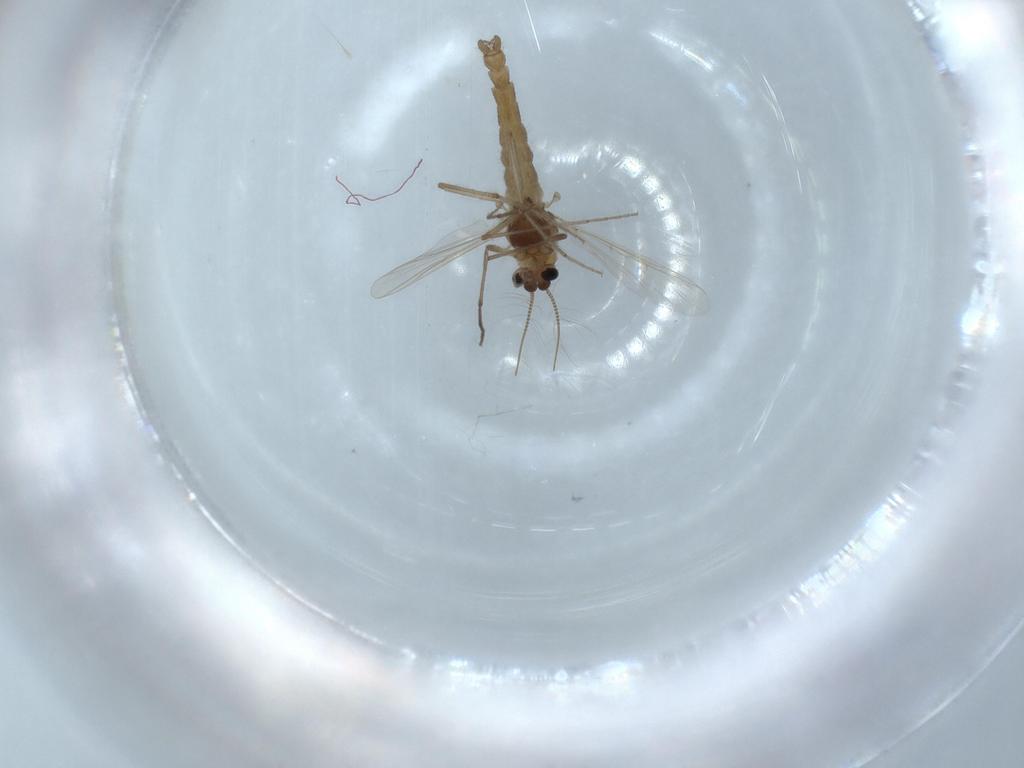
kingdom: Animalia
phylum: Arthropoda
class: Insecta
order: Diptera
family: Chironomidae
